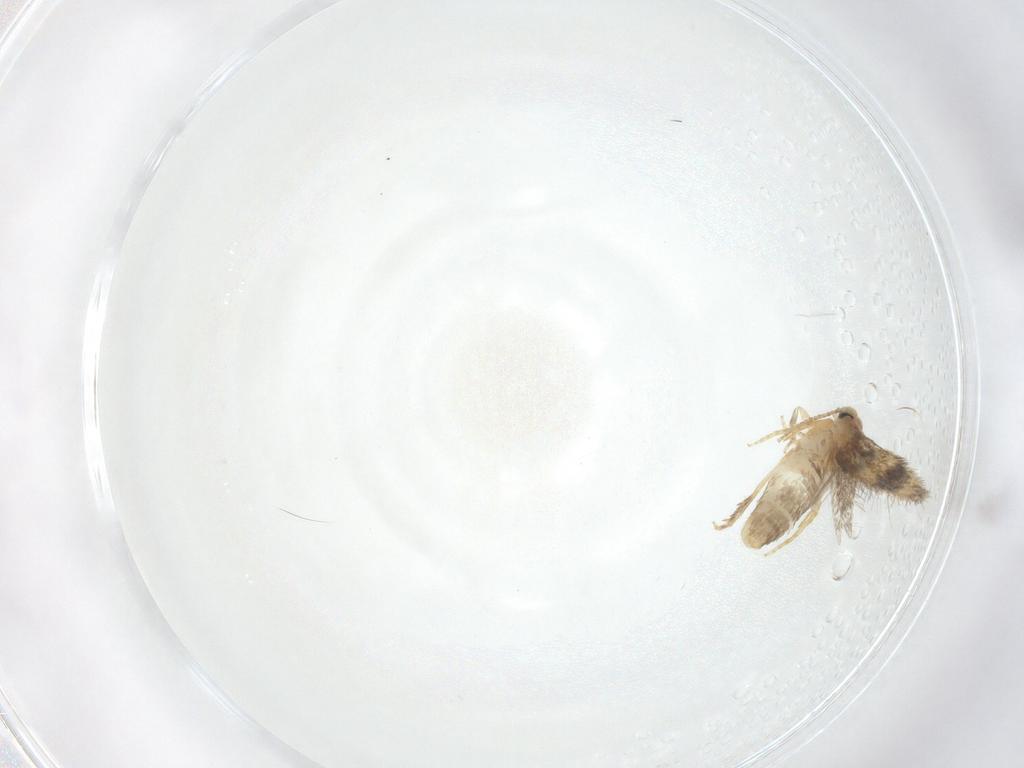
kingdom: Animalia
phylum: Arthropoda
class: Insecta
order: Lepidoptera
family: Nepticulidae
